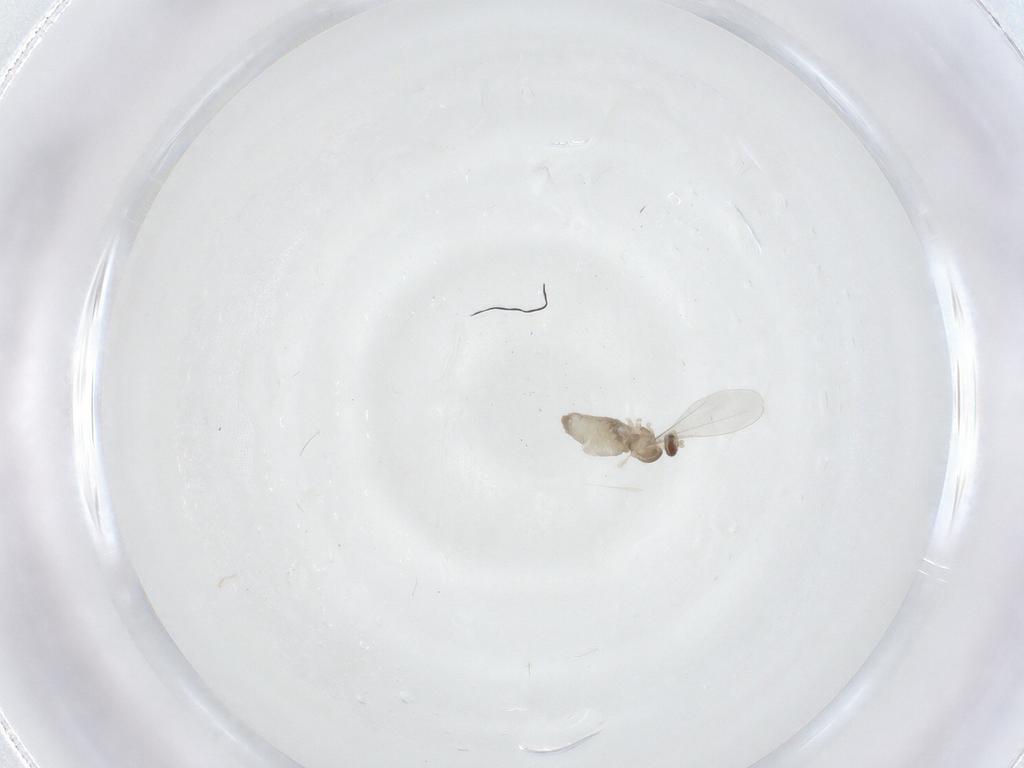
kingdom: Animalia
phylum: Arthropoda
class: Insecta
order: Diptera
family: Cecidomyiidae
